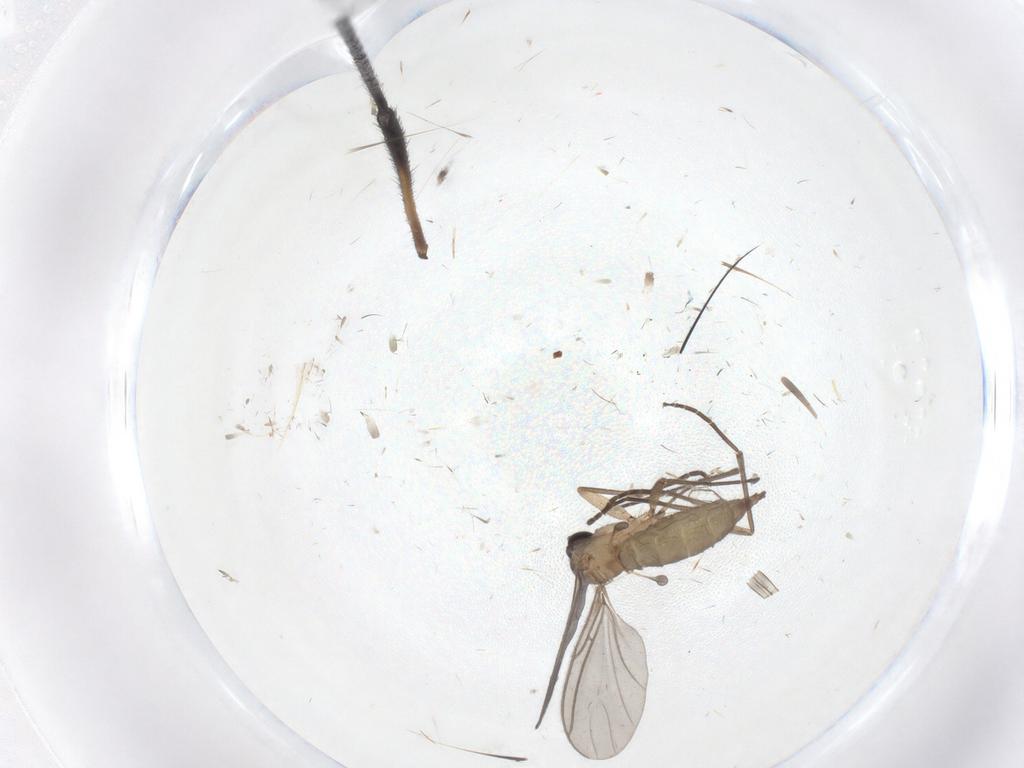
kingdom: Animalia
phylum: Arthropoda
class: Insecta
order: Diptera
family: Sciaridae
